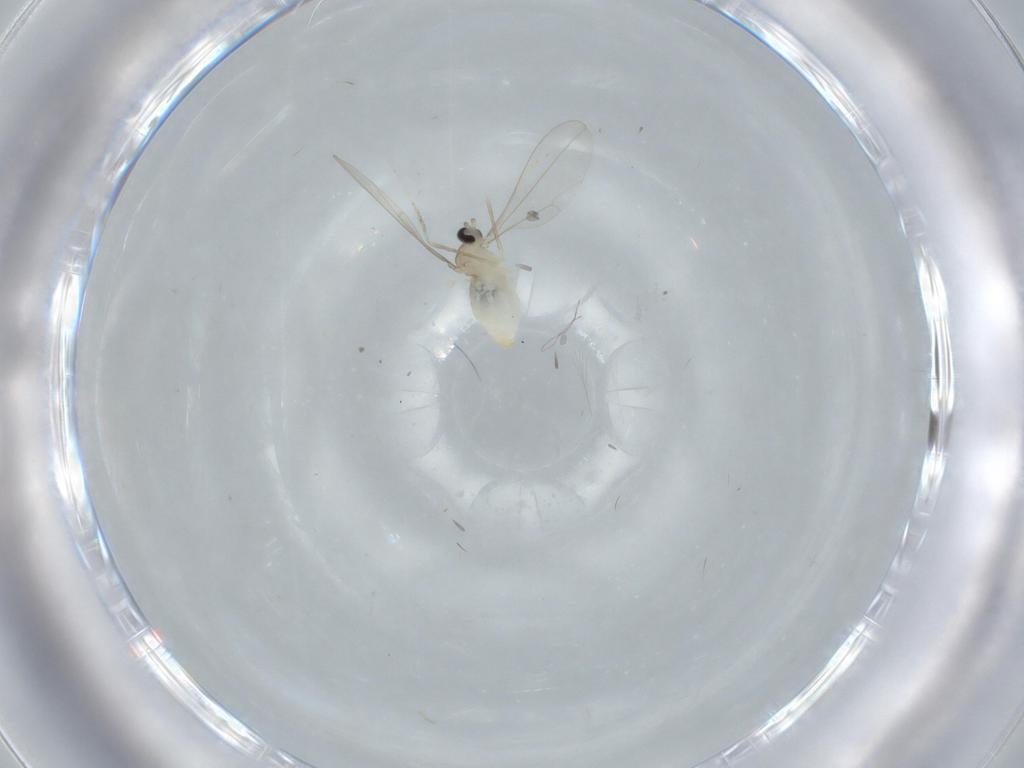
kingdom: Animalia
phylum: Arthropoda
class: Insecta
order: Diptera
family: Cecidomyiidae
